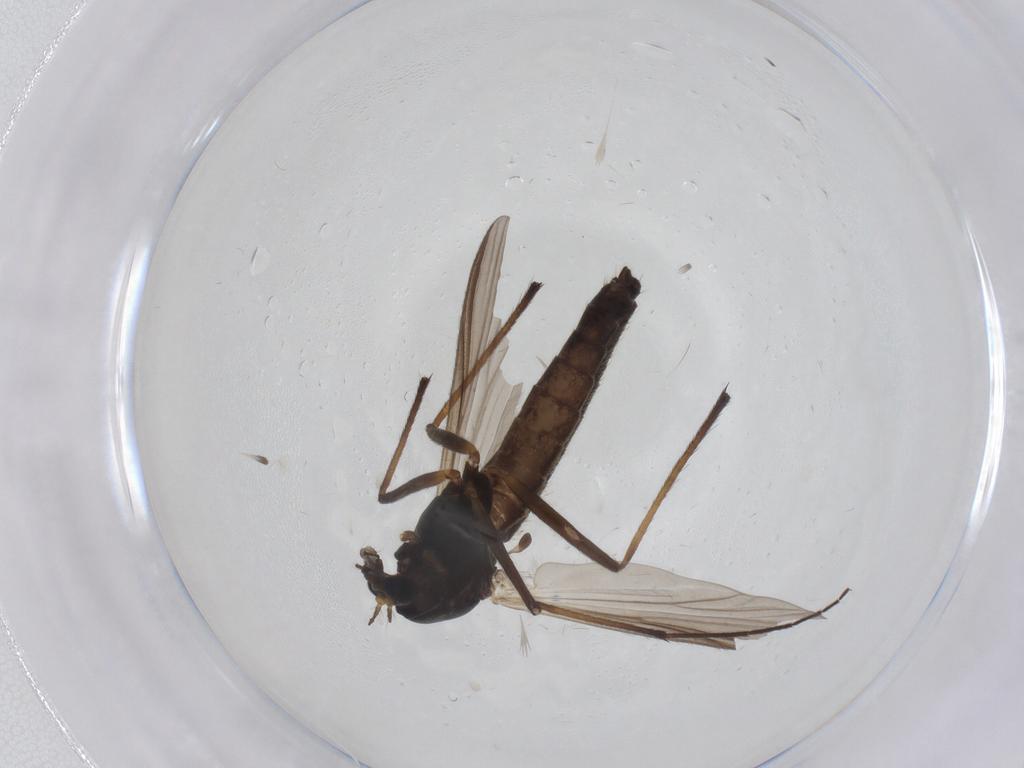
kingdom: Animalia
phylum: Arthropoda
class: Insecta
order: Diptera
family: Chironomidae
